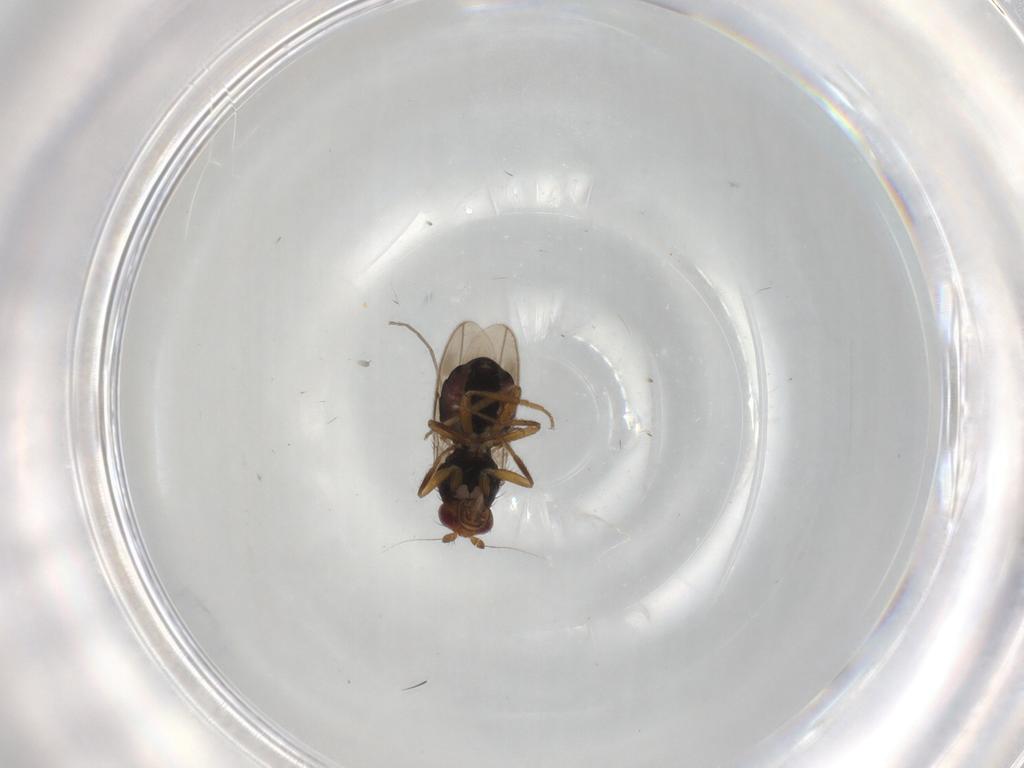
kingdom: Animalia
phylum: Arthropoda
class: Insecta
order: Diptera
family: Sphaeroceridae
